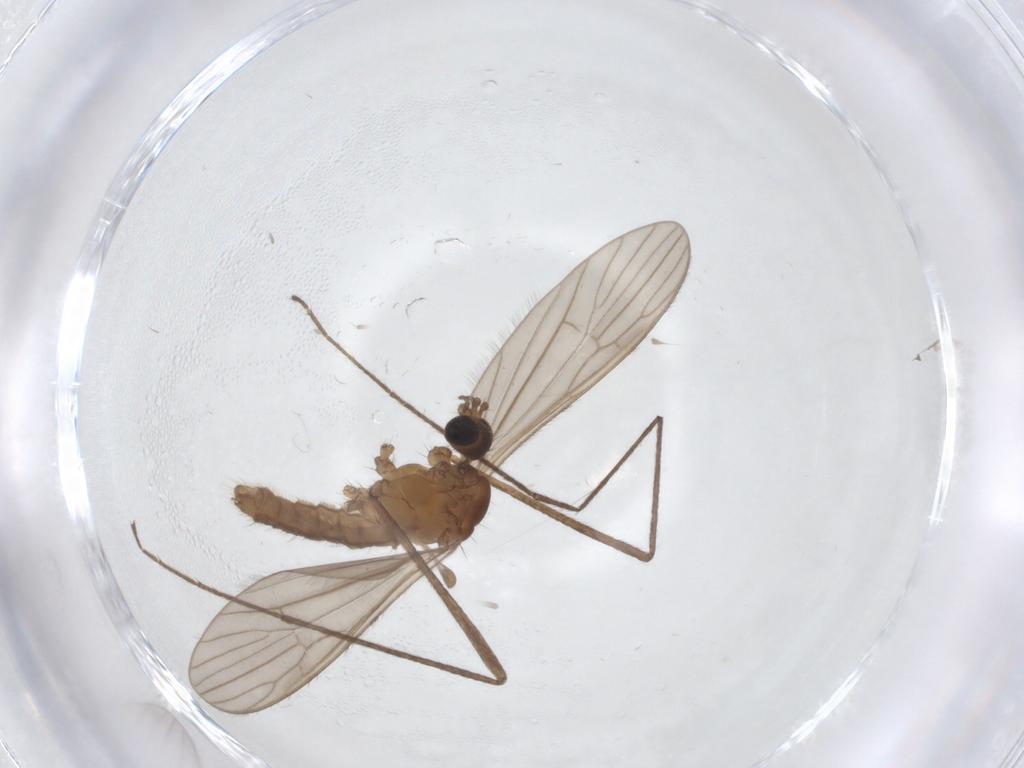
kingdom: Animalia
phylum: Arthropoda
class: Insecta
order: Diptera
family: Limoniidae
